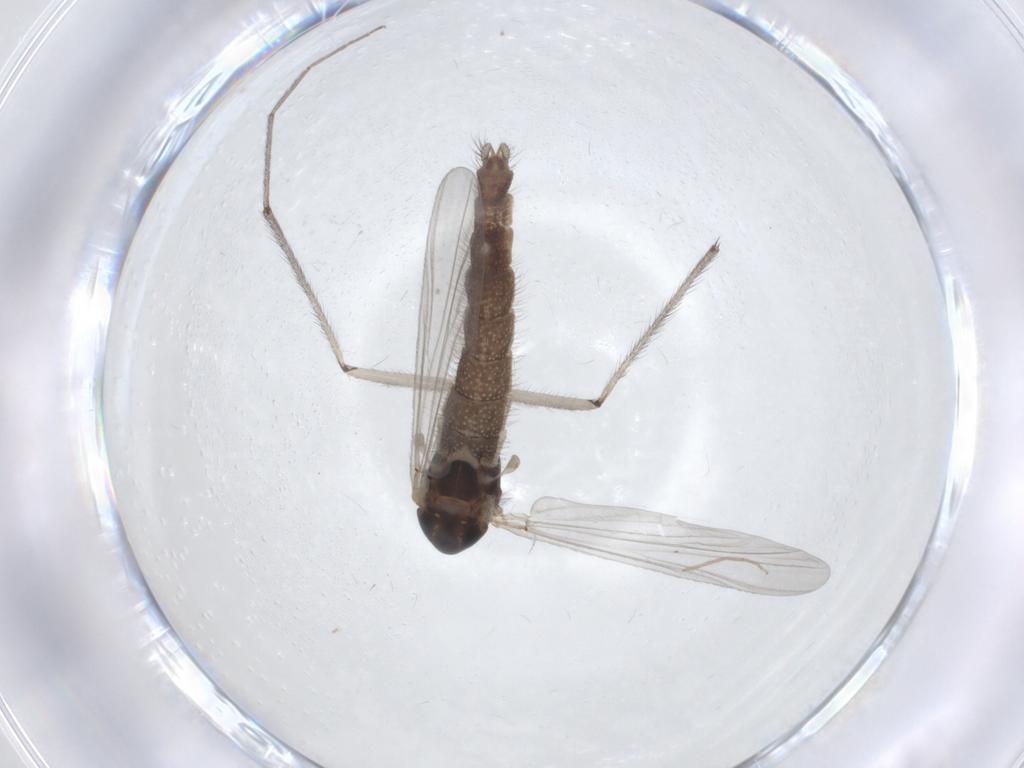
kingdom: Animalia
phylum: Arthropoda
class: Insecta
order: Diptera
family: Chironomidae
